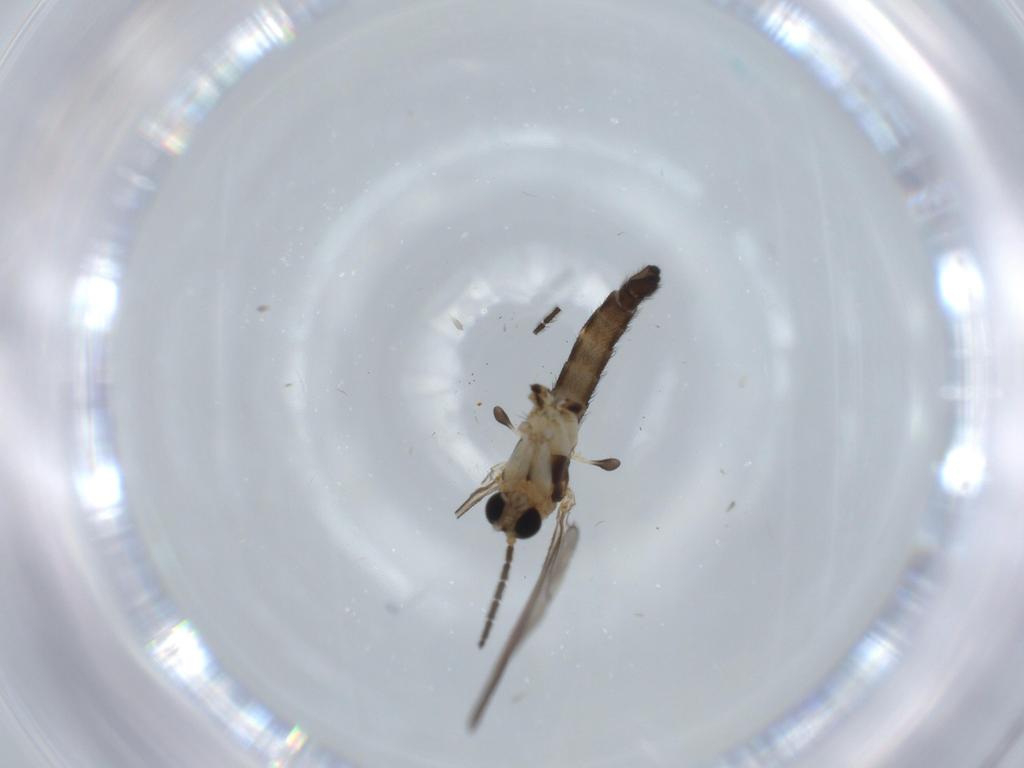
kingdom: Animalia
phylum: Arthropoda
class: Insecta
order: Diptera
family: Sciaridae
